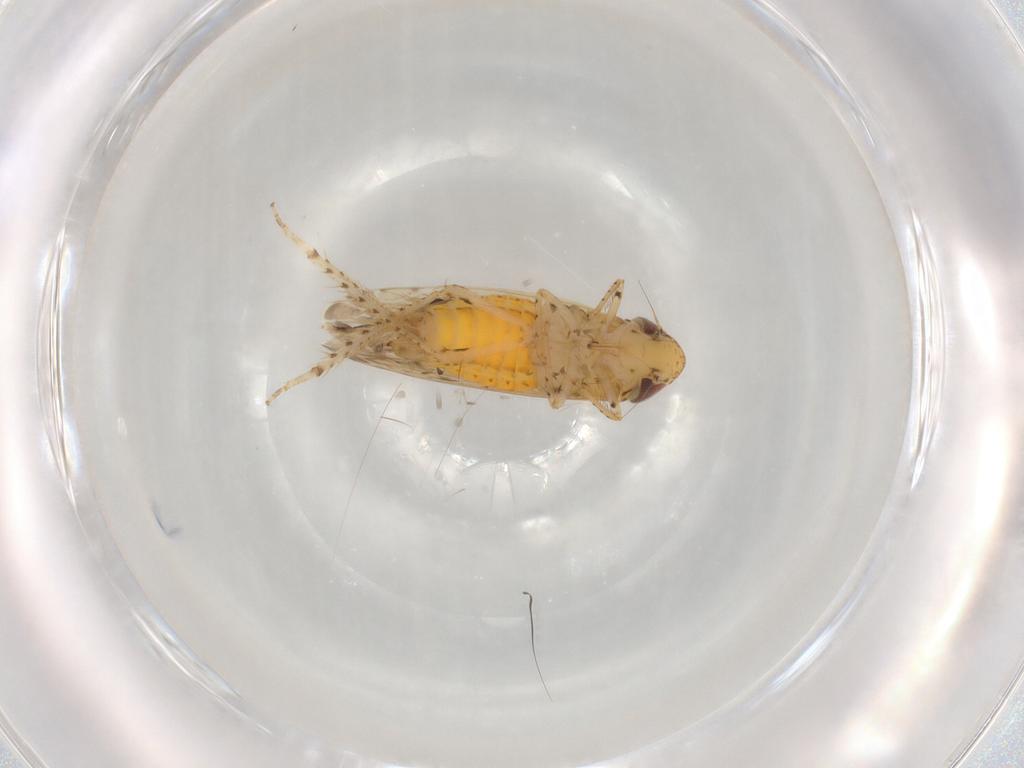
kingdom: Animalia
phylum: Arthropoda
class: Insecta
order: Hemiptera
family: Cicadellidae
